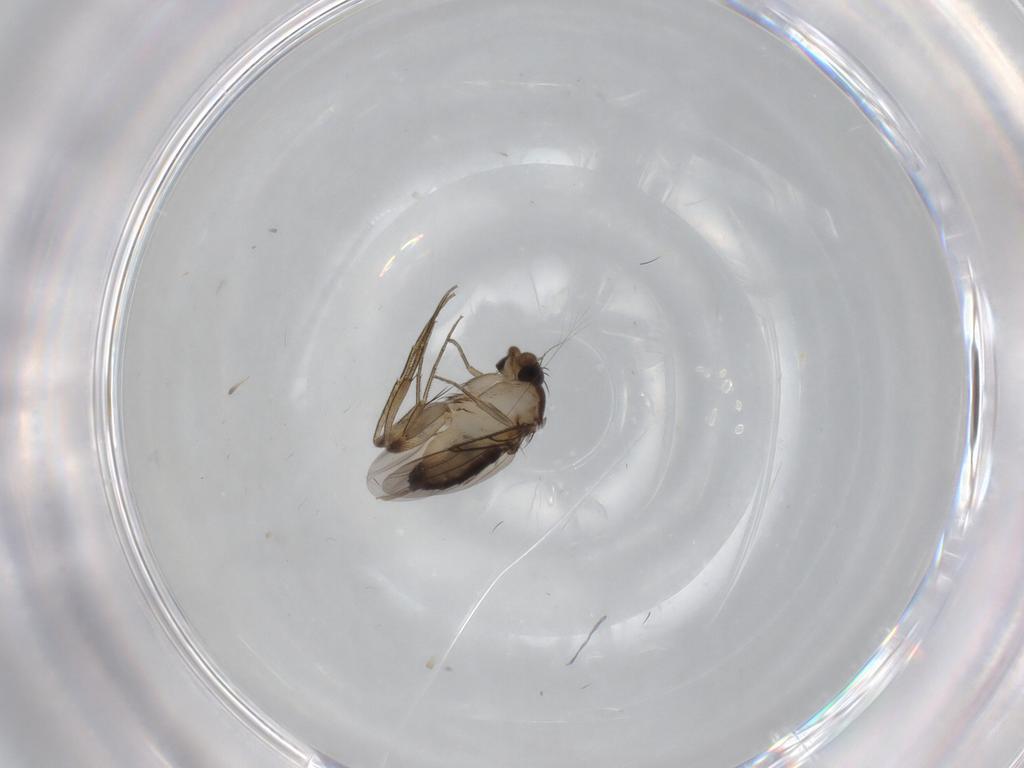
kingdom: Animalia
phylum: Arthropoda
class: Insecta
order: Diptera
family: Phoridae
